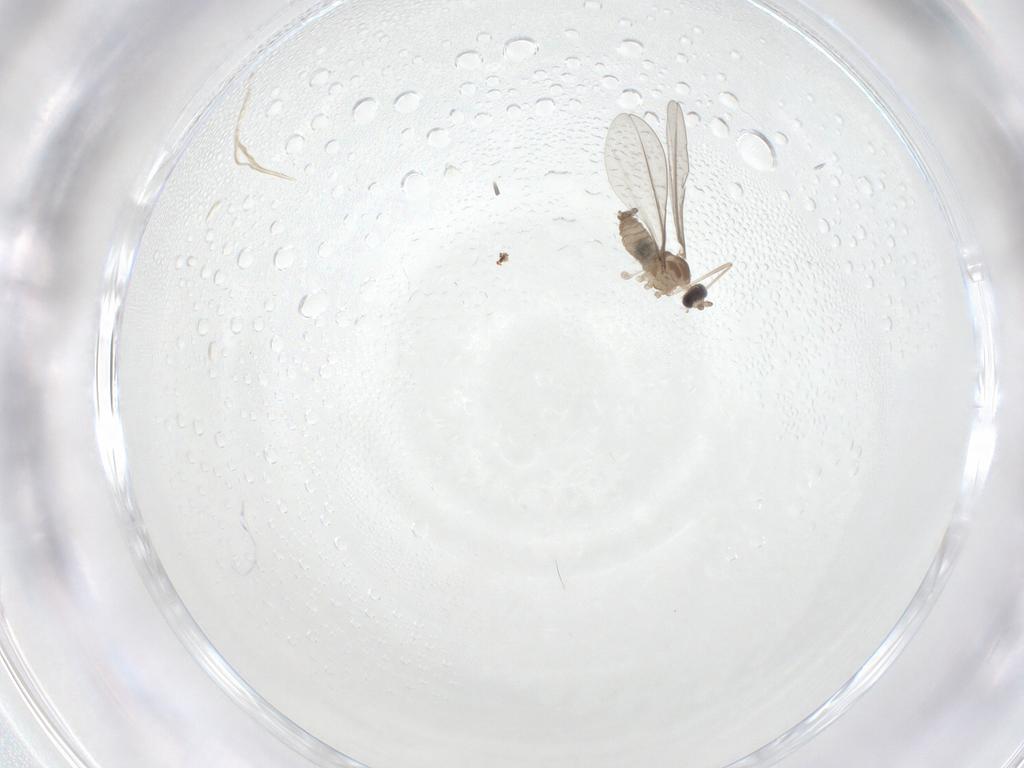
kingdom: Animalia
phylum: Arthropoda
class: Insecta
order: Diptera
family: Cecidomyiidae
